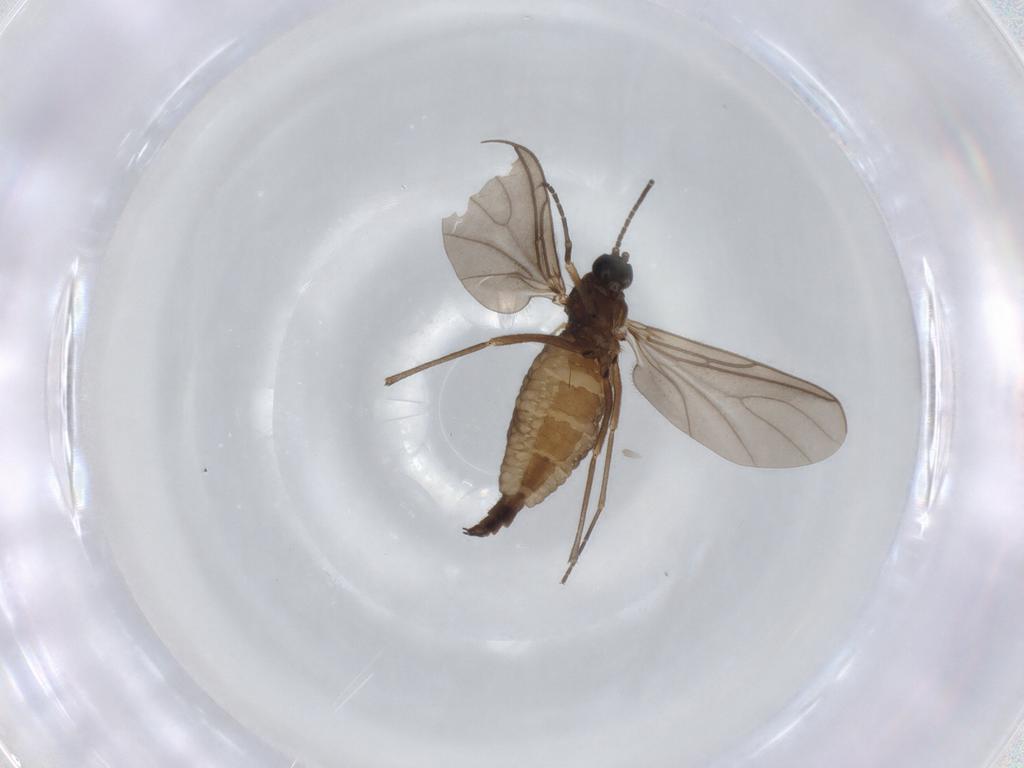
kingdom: Animalia
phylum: Arthropoda
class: Insecta
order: Diptera
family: Sciaridae
